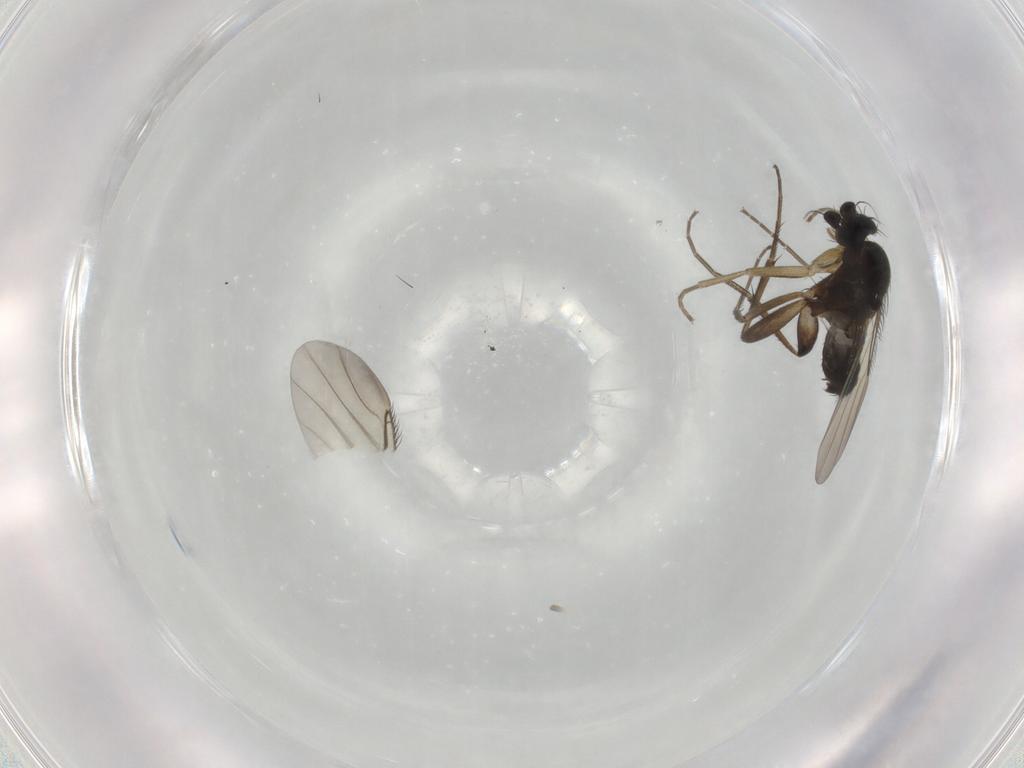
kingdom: Animalia
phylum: Arthropoda
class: Insecta
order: Diptera
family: Phoridae
